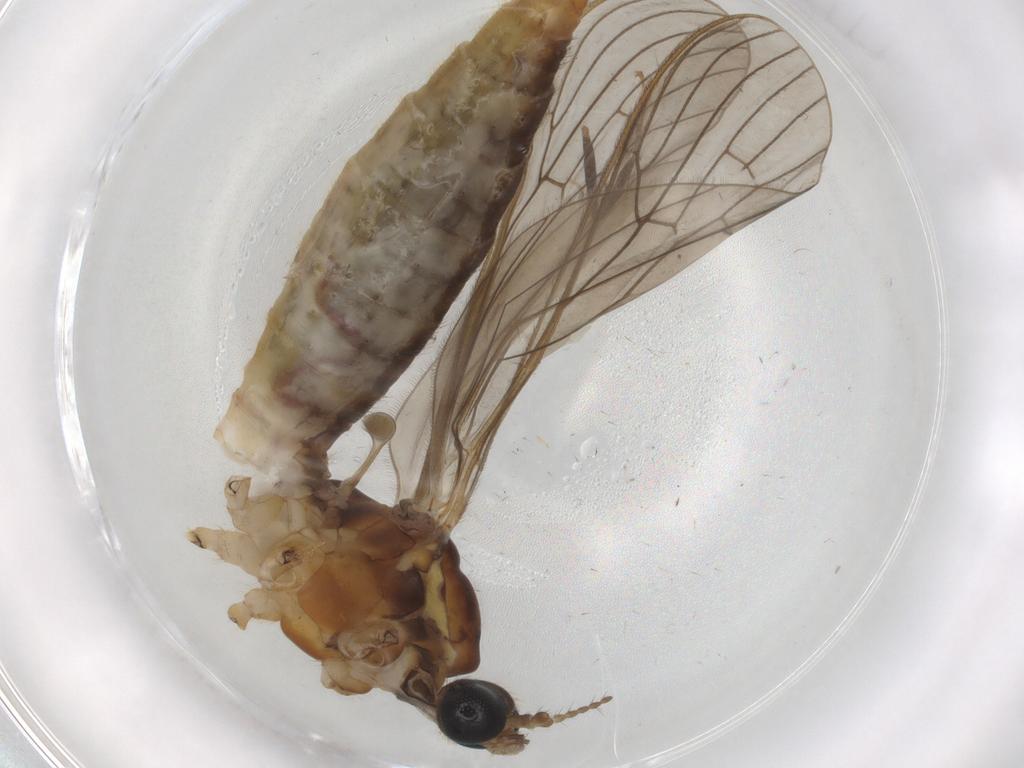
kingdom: Animalia
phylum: Arthropoda
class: Insecta
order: Diptera
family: Limoniidae
